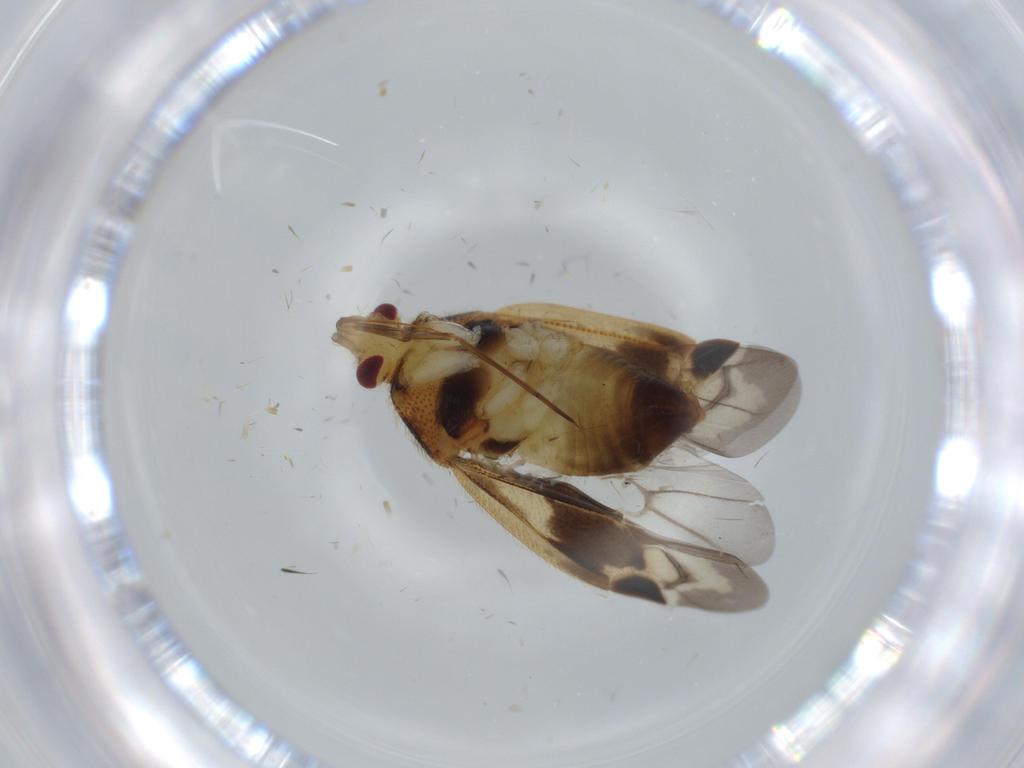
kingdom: Animalia
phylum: Arthropoda
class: Insecta
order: Hemiptera
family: Miridae
